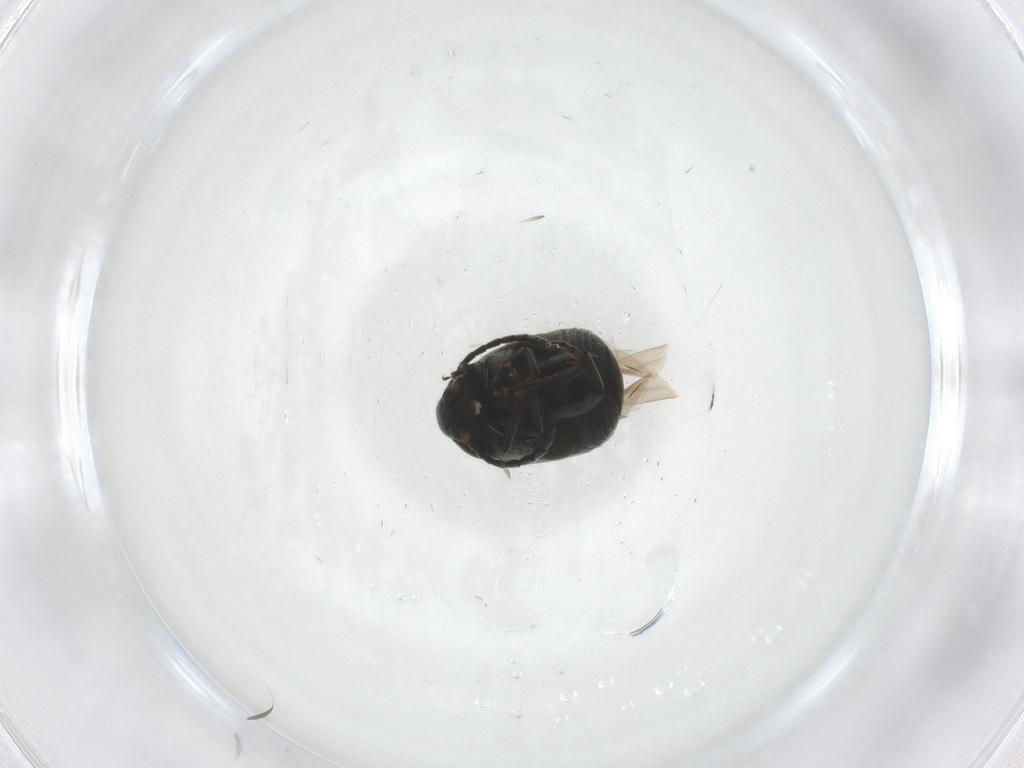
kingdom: Animalia
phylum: Arthropoda
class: Insecta
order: Coleoptera
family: Chrysomelidae
